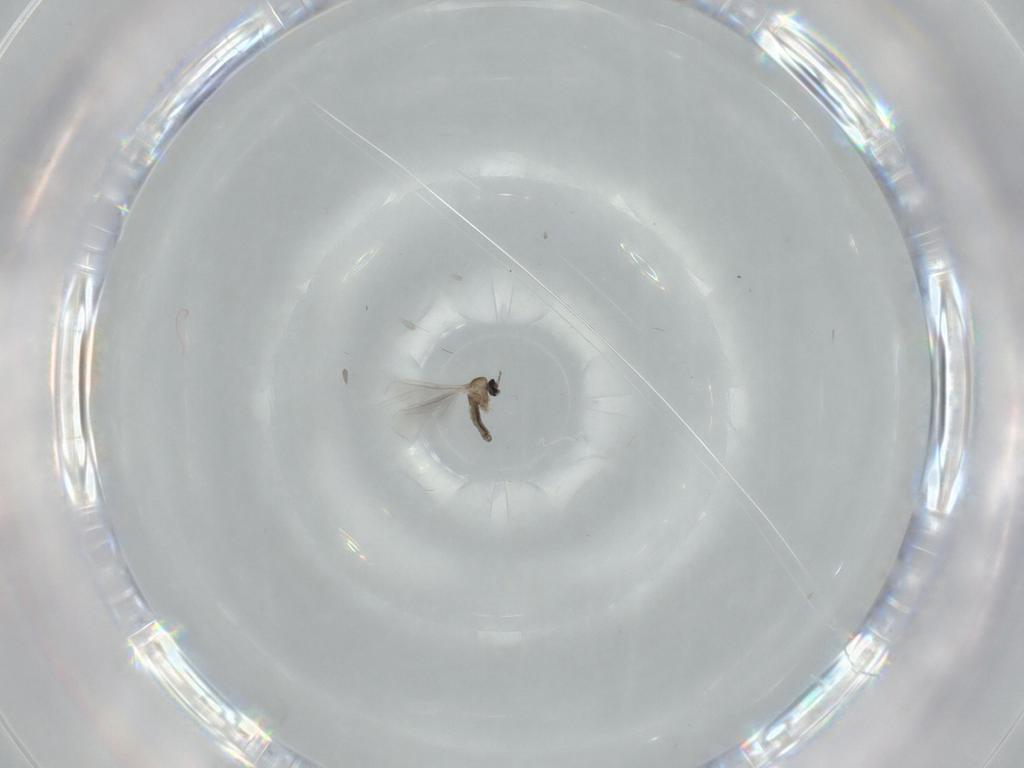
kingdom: Animalia
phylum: Arthropoda
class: Insecta
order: Diptera
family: Cecidomyiidae
